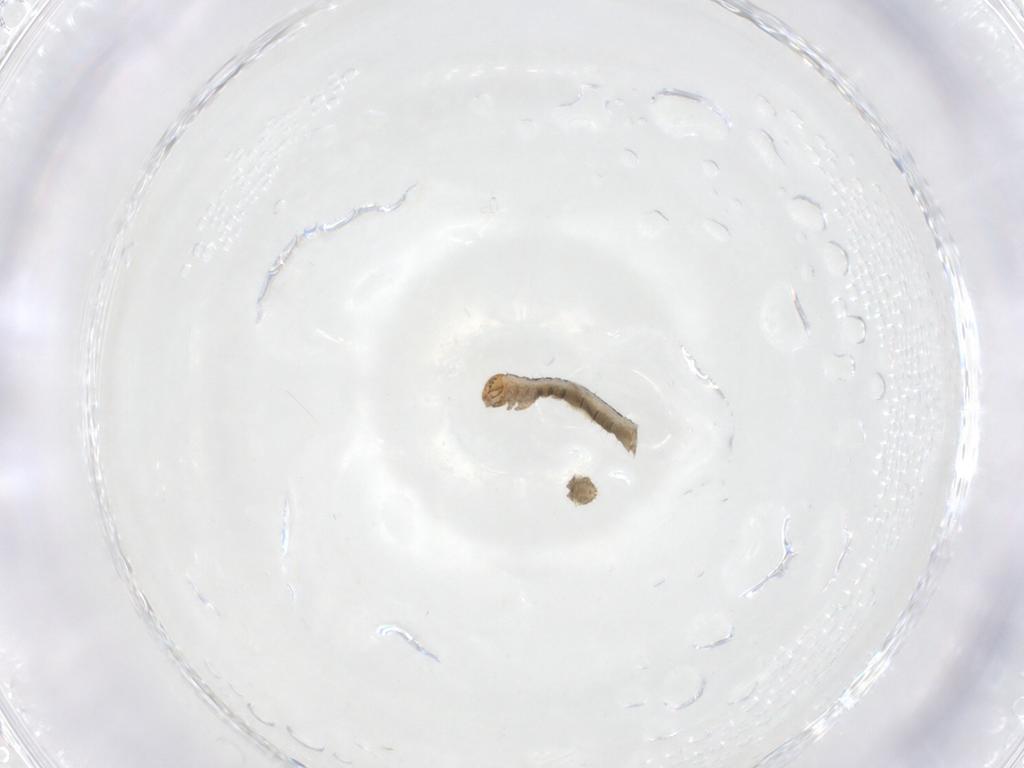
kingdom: Animalia
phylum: Arthropoda
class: Insecta
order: Lepidoptera
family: Geometridae
